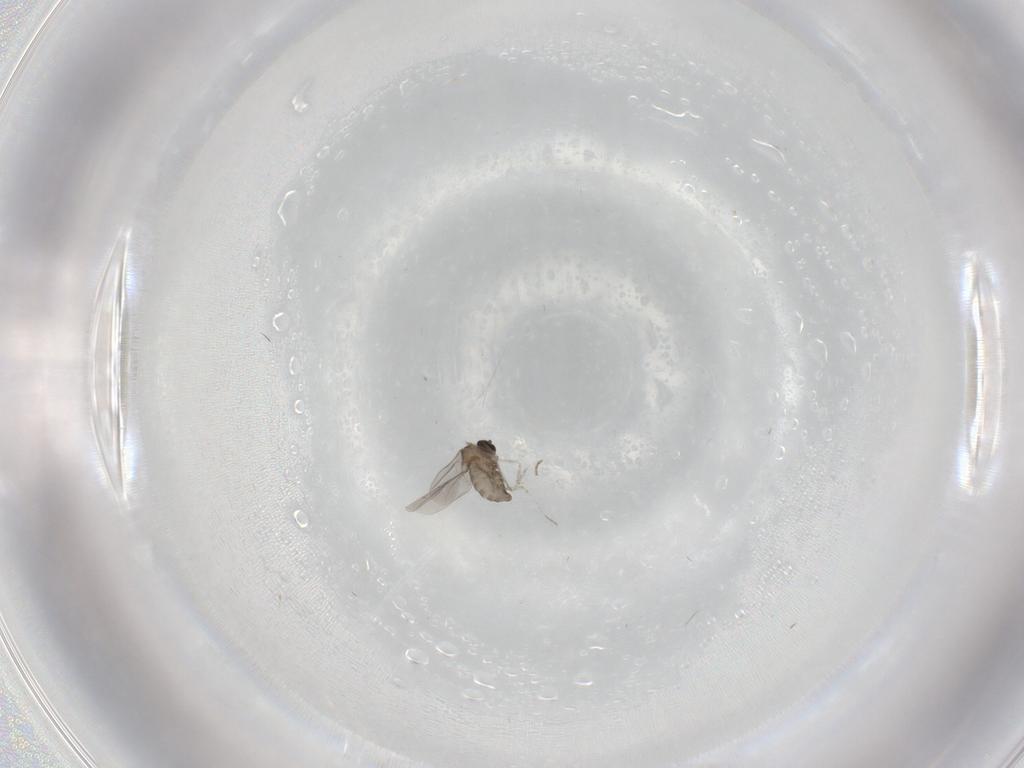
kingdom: Animalia
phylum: Arthropoda
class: Insecta
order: Diptera
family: Cecidomyiidae
